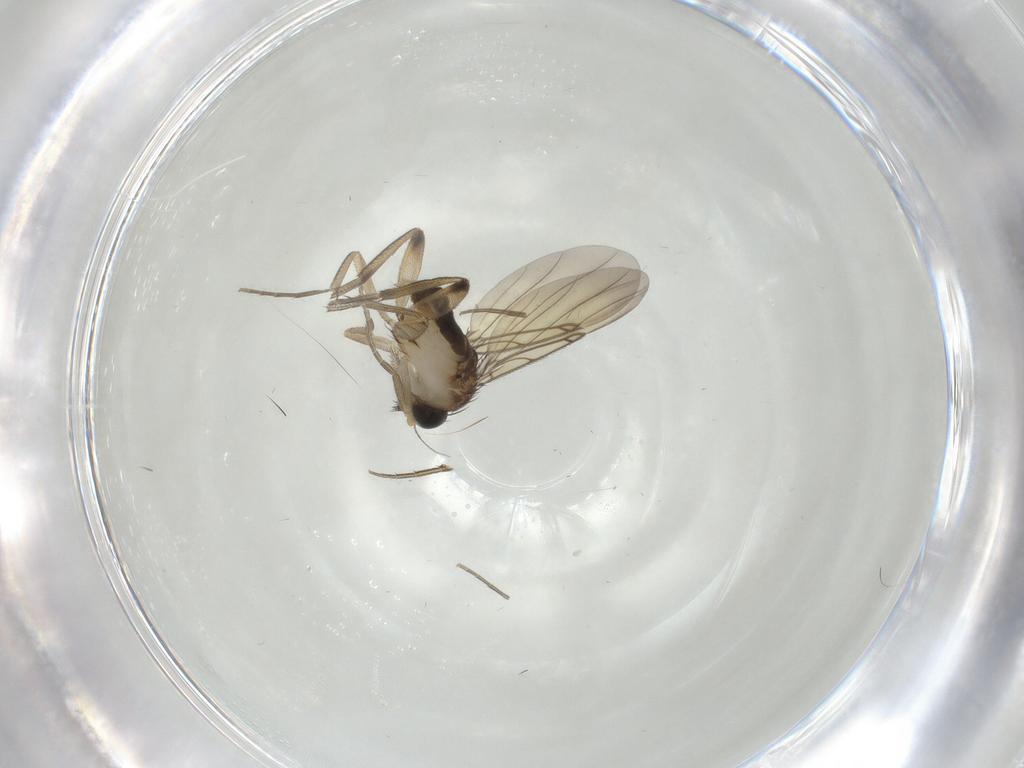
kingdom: Animalia
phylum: Arthropoda
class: Insecta
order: Diptera
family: Phoridae
